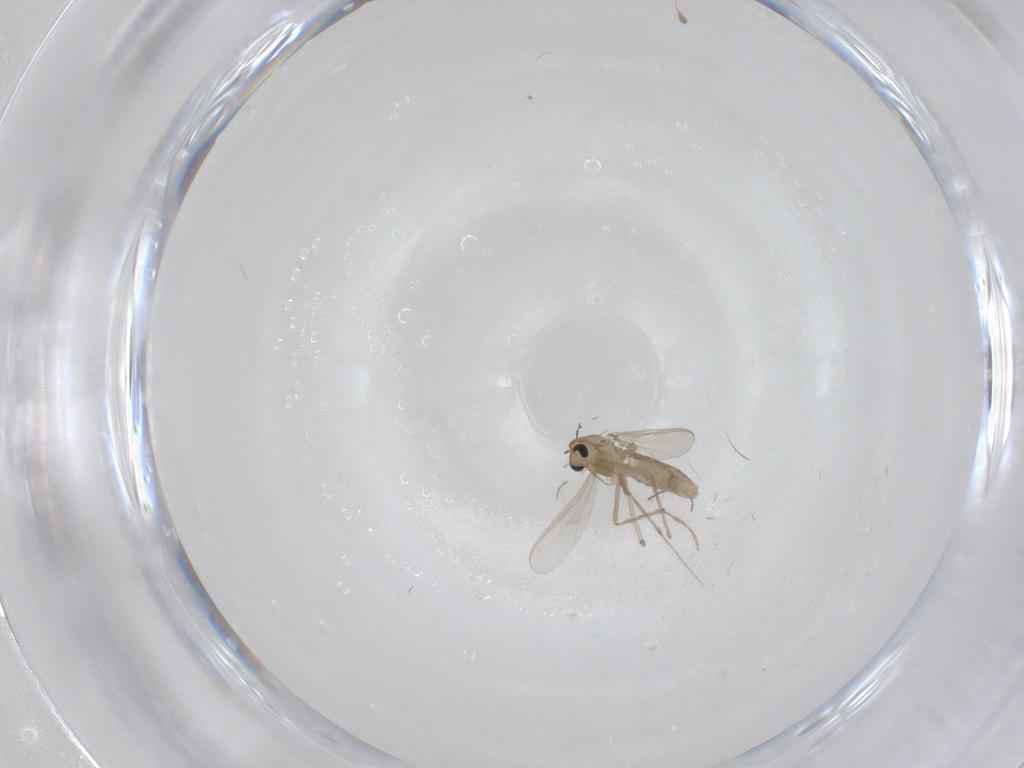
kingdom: Animalia
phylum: Arthropoda
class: Insecta
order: Diptera
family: Chironomidae
